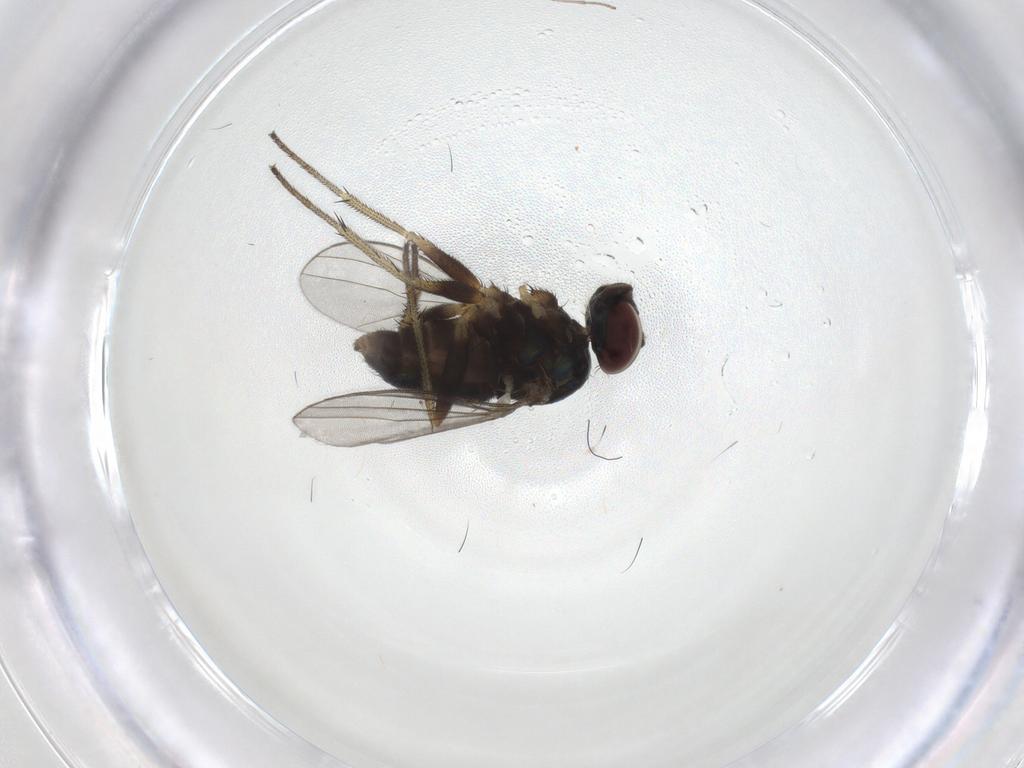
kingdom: Animalia
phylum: Arthropoda
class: Insecta
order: Diptera
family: Dolichopodidae
